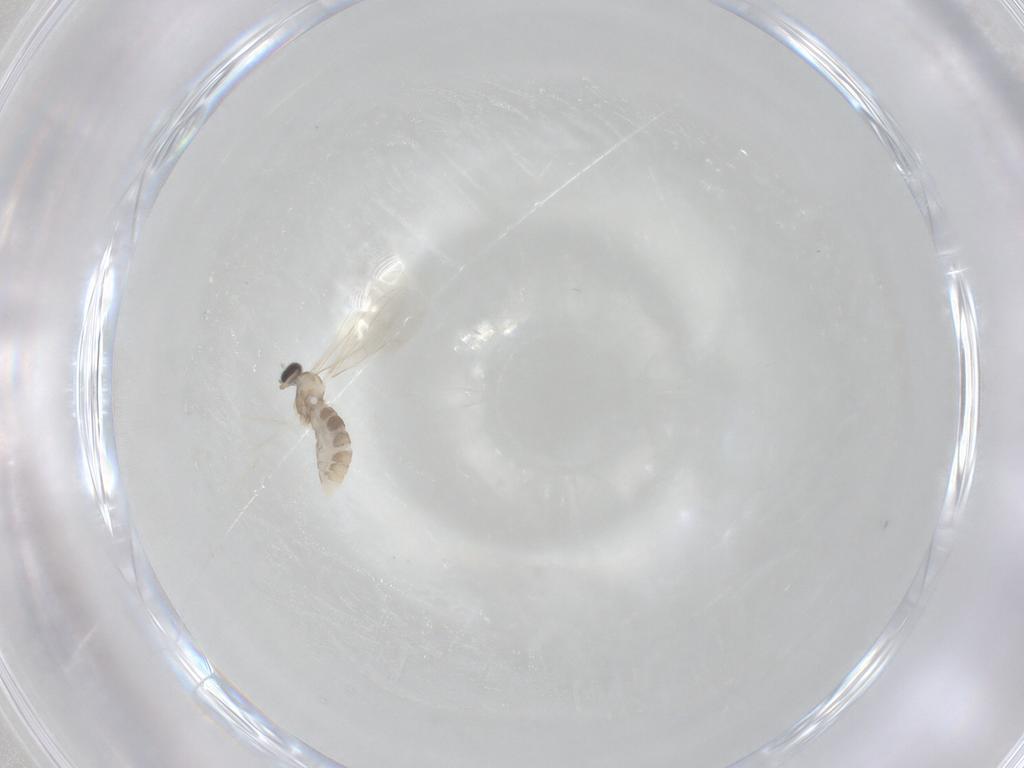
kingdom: Animalia
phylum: Arthropoda
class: Insecta
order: Diptera
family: Cecidomyiidae
